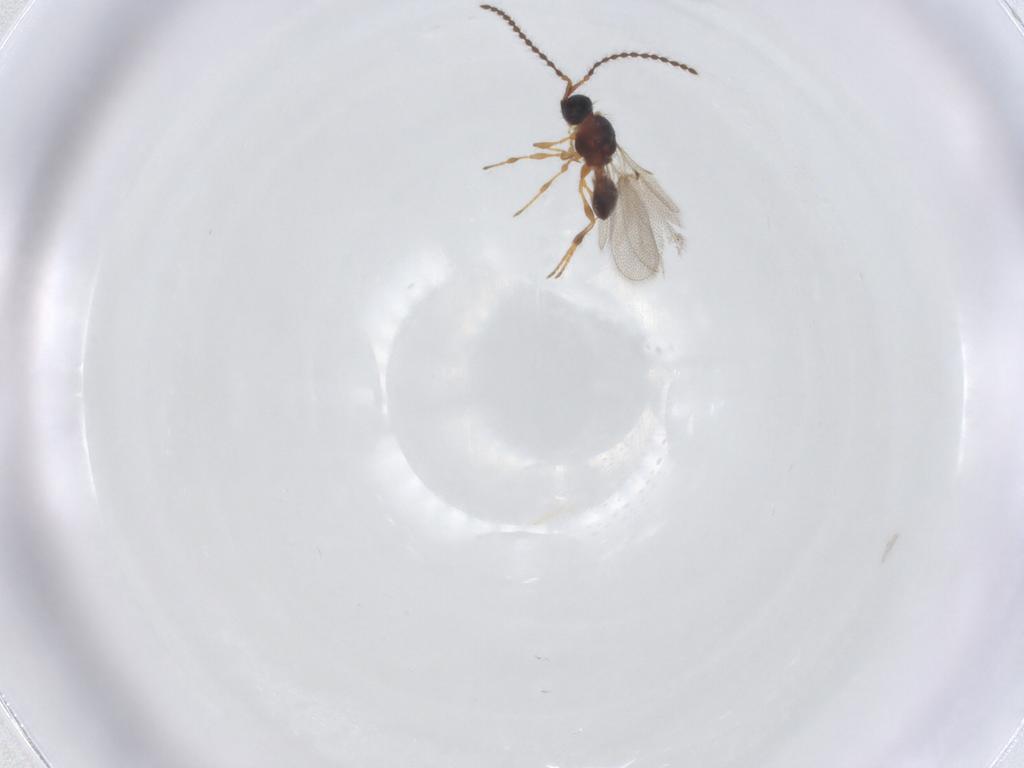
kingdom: Animalia
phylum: Arthropoda
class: Insecta
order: Hymenoptera
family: Diapriidae
